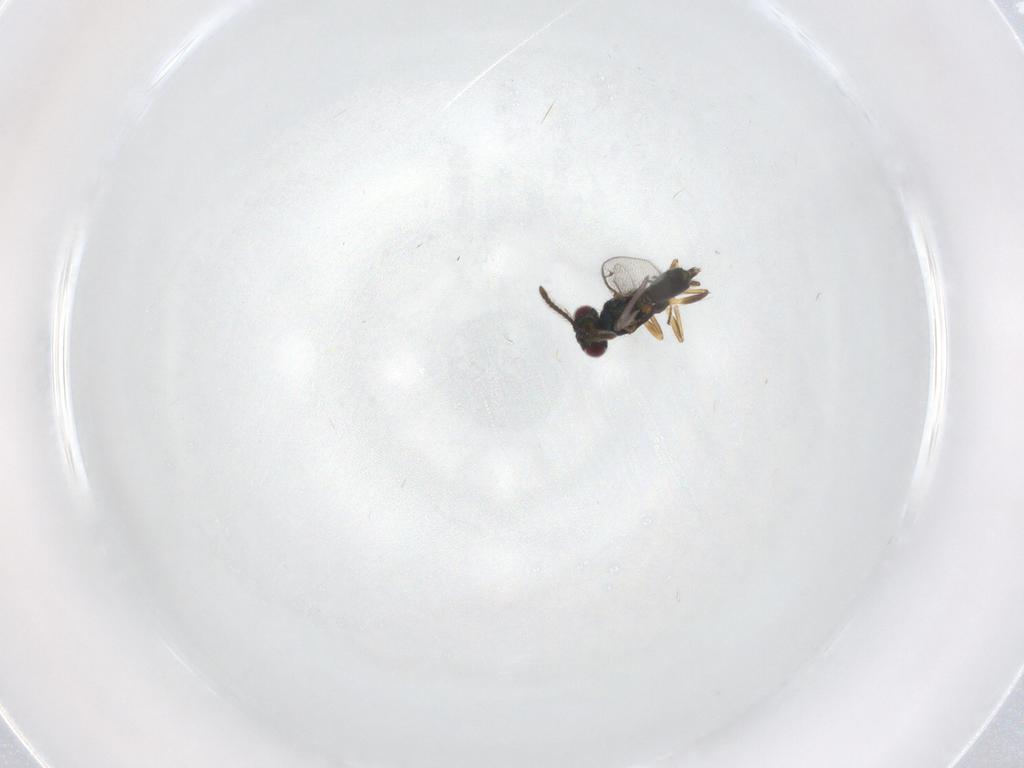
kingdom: Animalia
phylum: Arthropoda
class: Insecta
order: Hymenoptera
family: Eupelmidae
